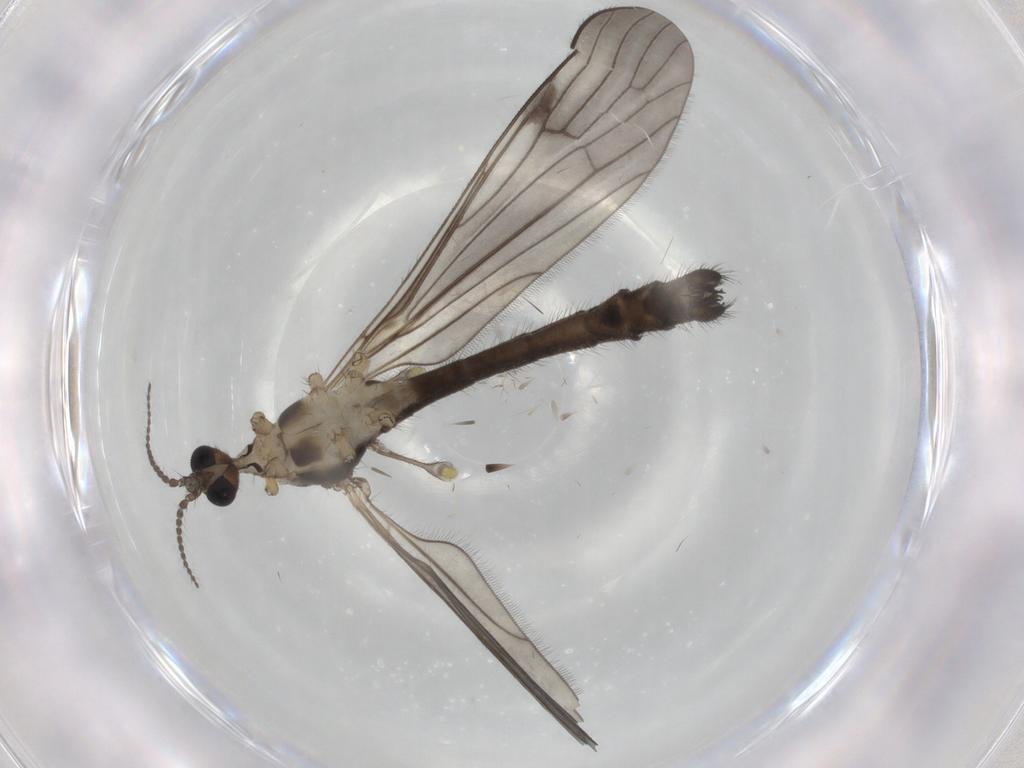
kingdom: Animalia
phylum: Arthropoda
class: Insecta
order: Diptera
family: Limoniidae
